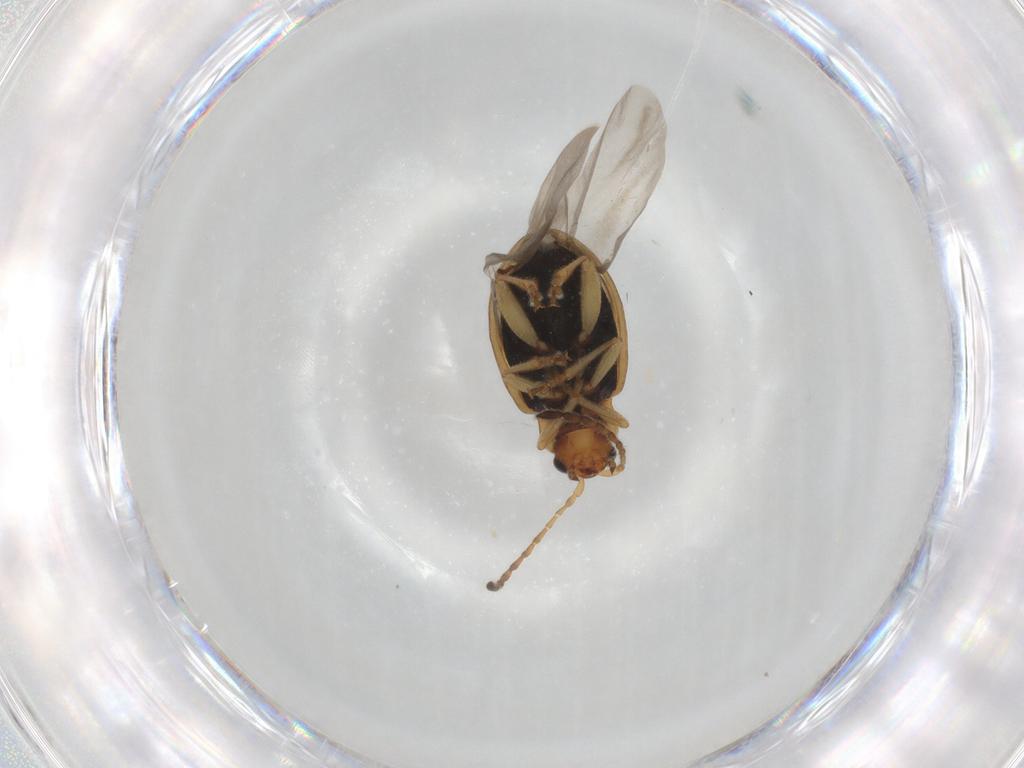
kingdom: Animalia
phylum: Arthropoda
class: Insecta
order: Coleoptera
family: Chrysomelidae
